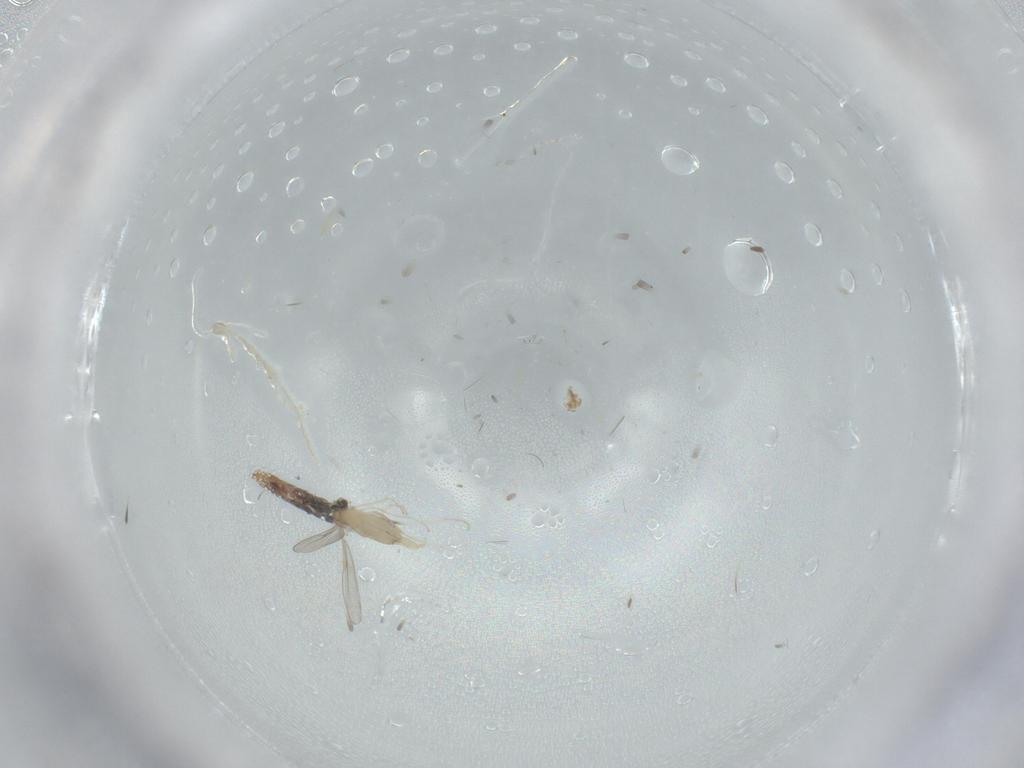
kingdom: Animalia
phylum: Arthropoda
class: Insecta
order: Diptera
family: Cecidomyiidae
